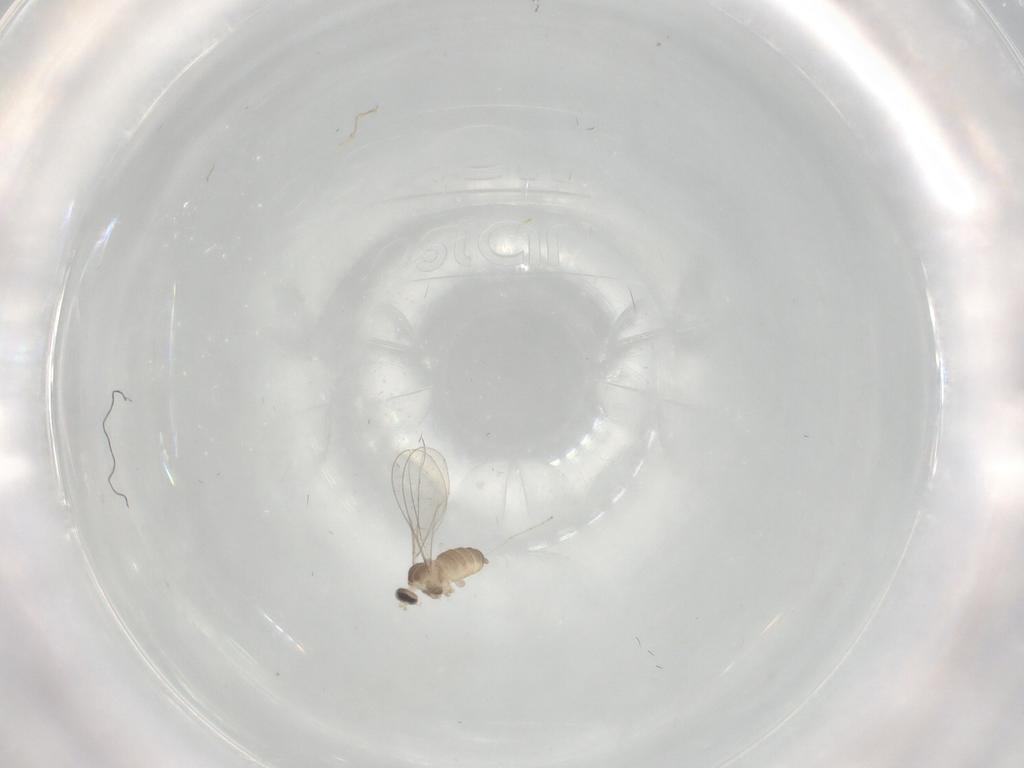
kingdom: Animalia
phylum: Arthropoda
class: Insecta
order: Diptera
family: Cecidomyiidae
